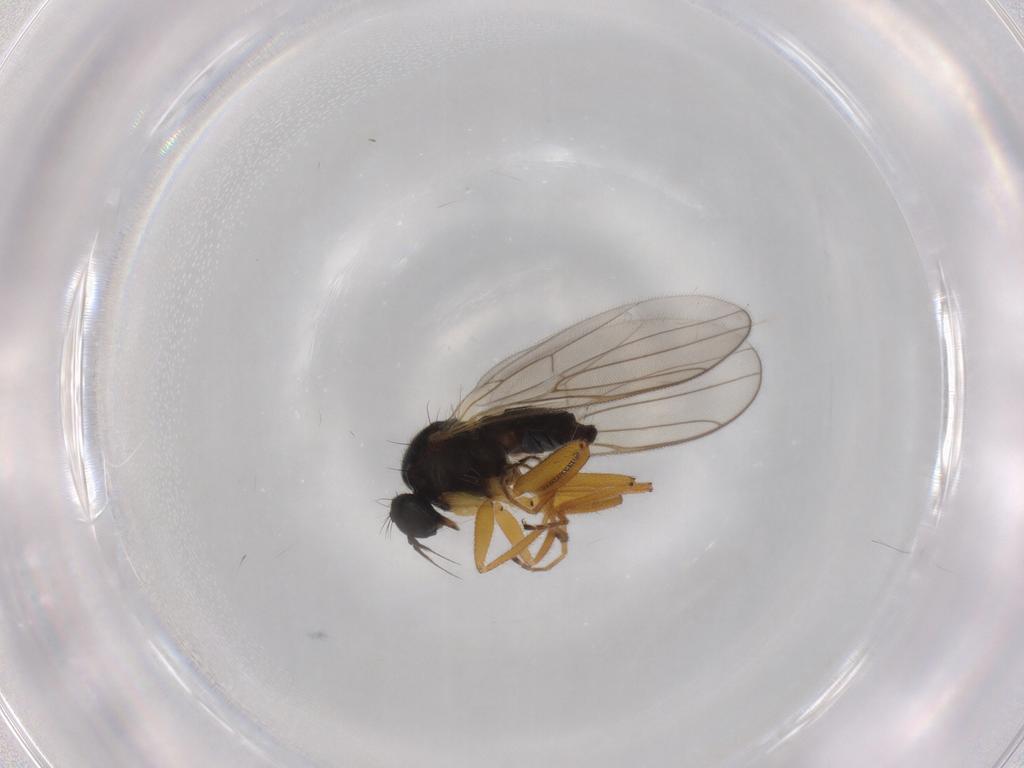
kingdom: Animalia
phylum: Arthropoda
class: Insecta
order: Diptera
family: Hybotidae
